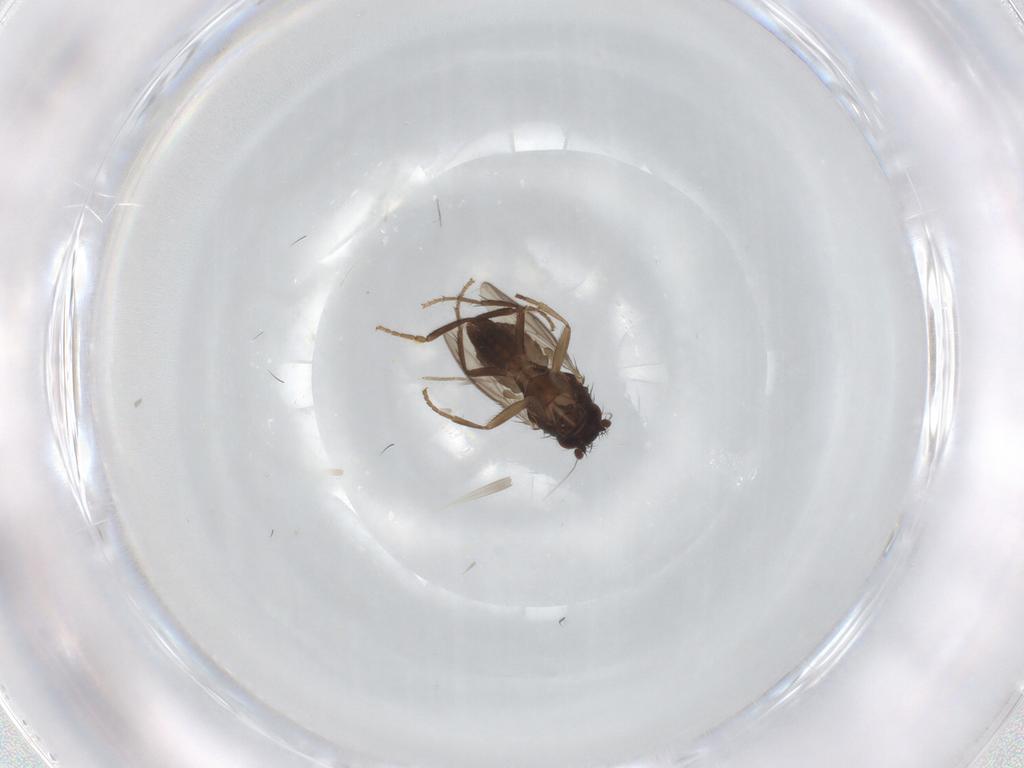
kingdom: Animalia
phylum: Arthropoda
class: Insecta
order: Diptera
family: Sphaeroceridae
